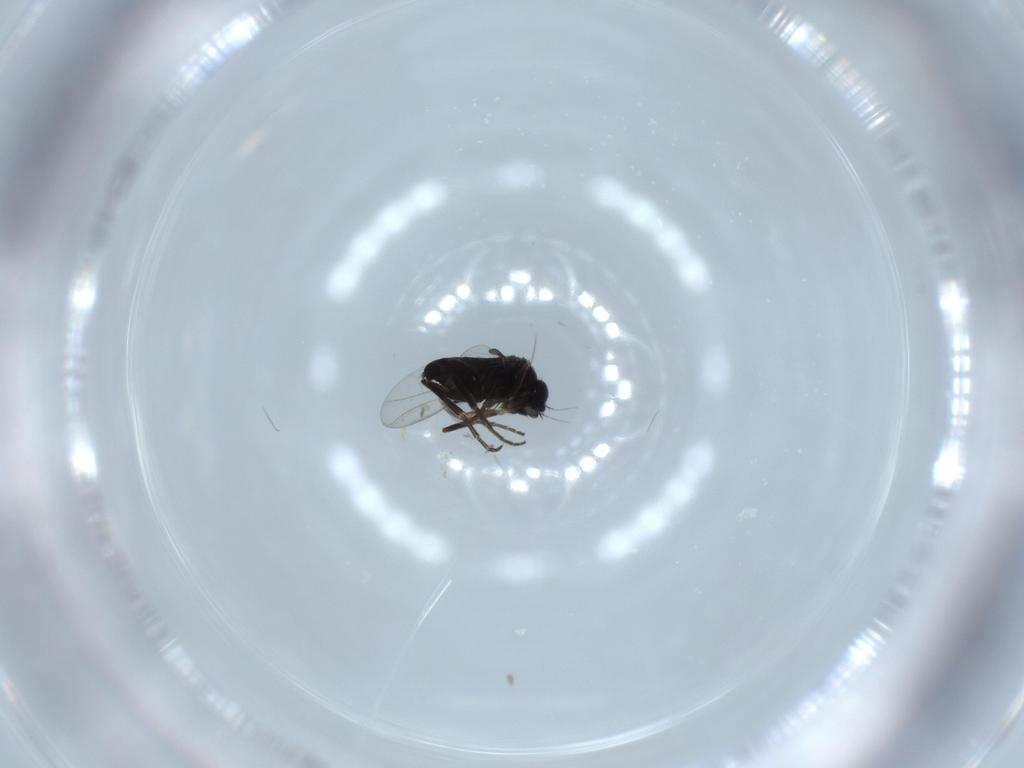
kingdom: Animalia
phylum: Arthropoda
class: Insecta
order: Diptera
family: Phoridae
